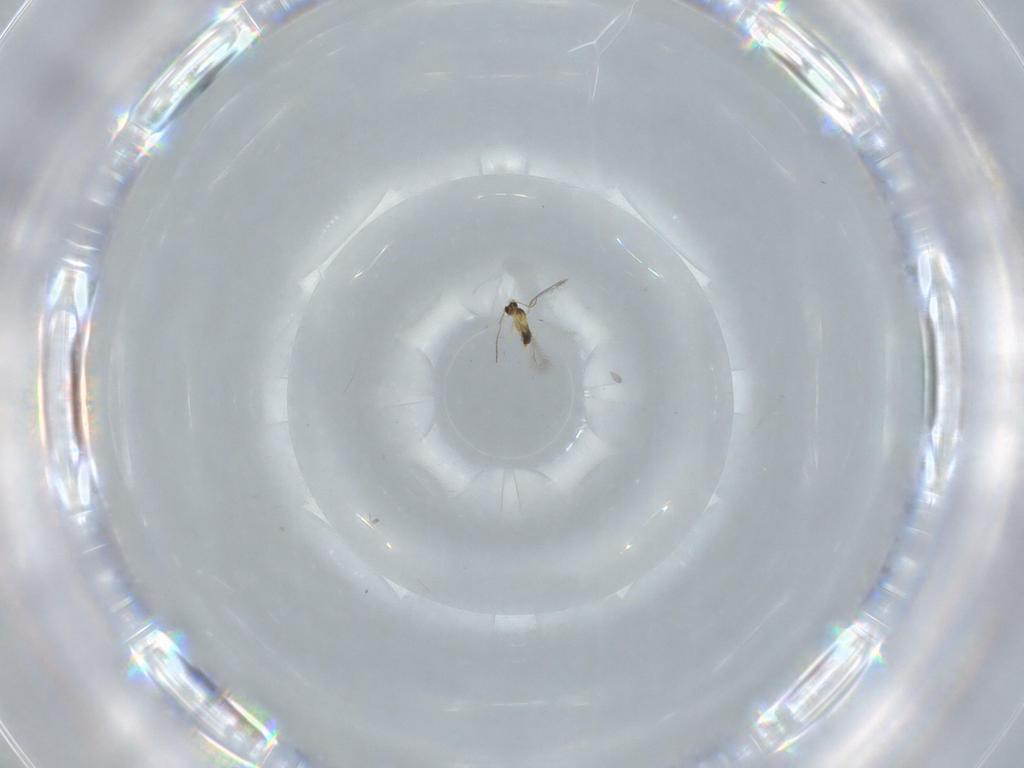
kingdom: Animalia
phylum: Arthropoda
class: Insecta
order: Hymenoptera
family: Mymaridae
